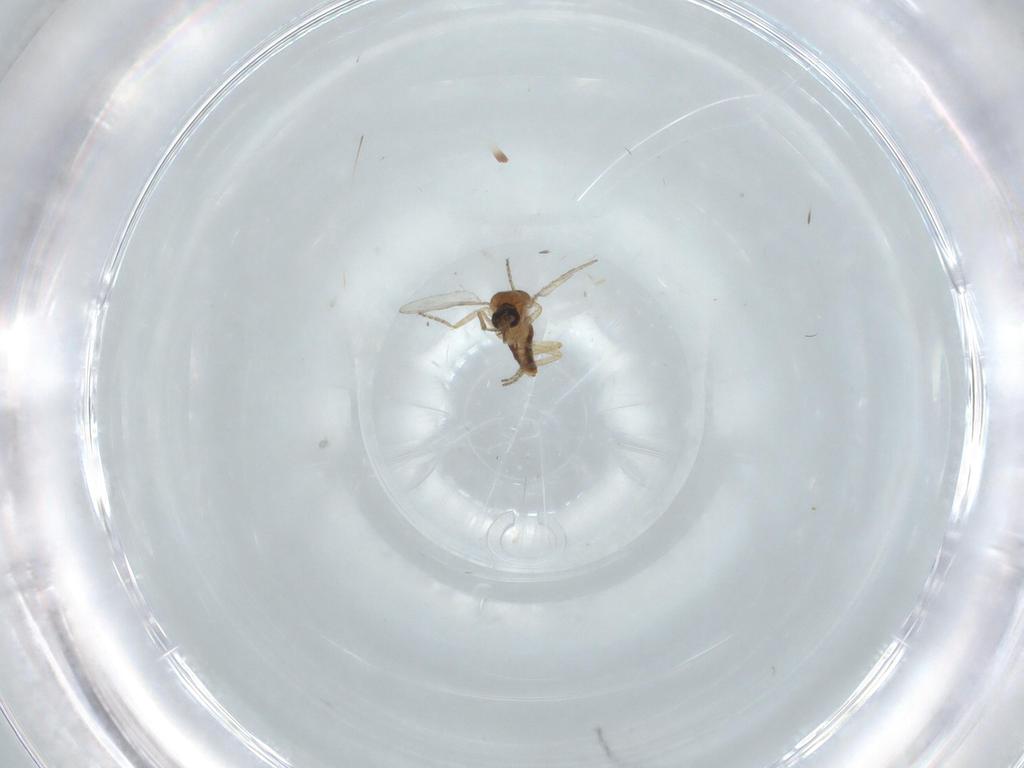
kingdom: Animalia
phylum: Arthropoda
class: Insecta
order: Diptera
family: Ceratopogonidae
